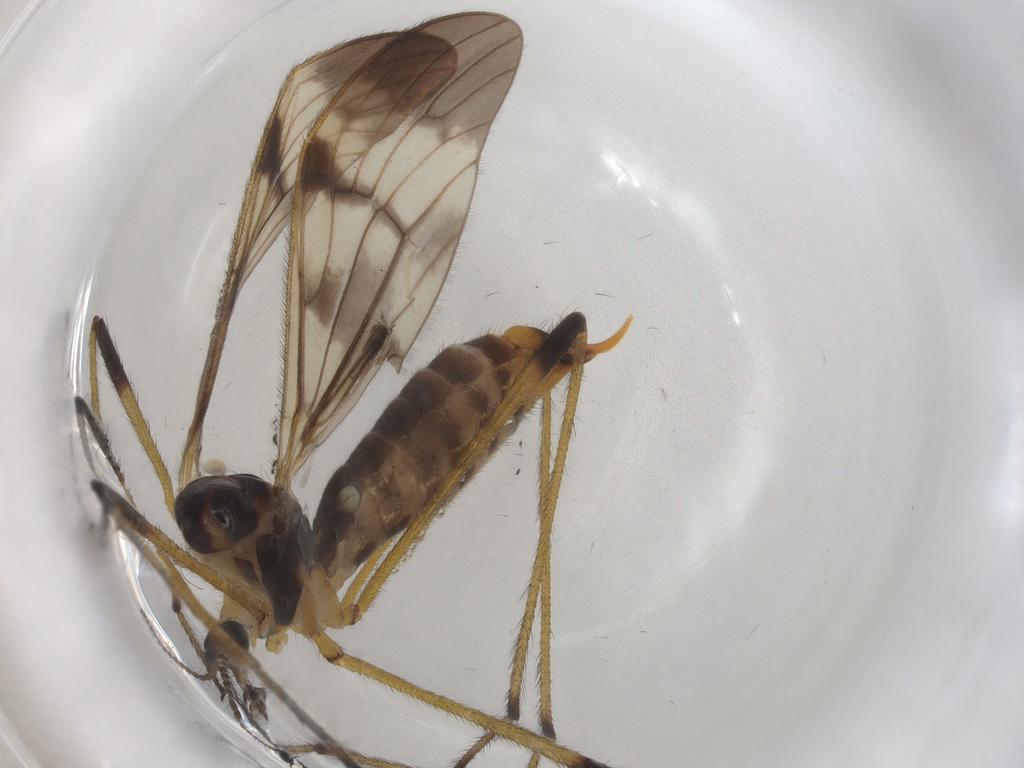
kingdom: Animalia
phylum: Arthropoda
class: Insecta
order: Diptera
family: Limoniidae
